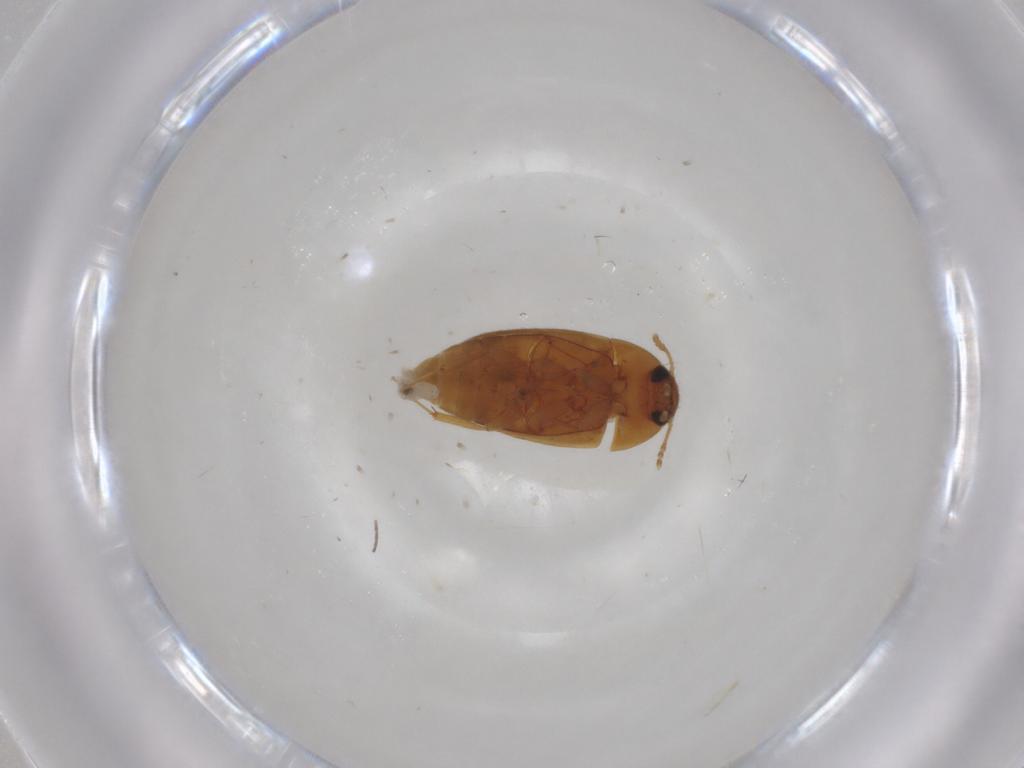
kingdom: Animalia
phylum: Arthropoda
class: Insecta
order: Coleoptera
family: Mycetophagidae
